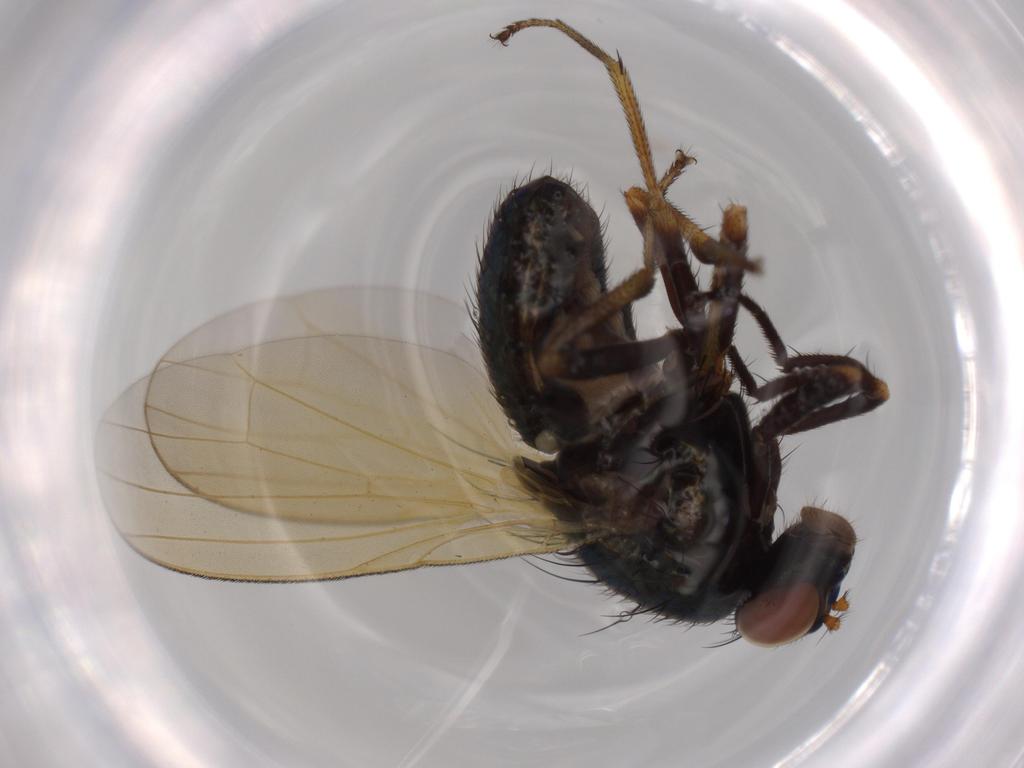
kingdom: Animalia
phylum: Arthropoda
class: Insecta
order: Diptera
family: Lauxaniidae
